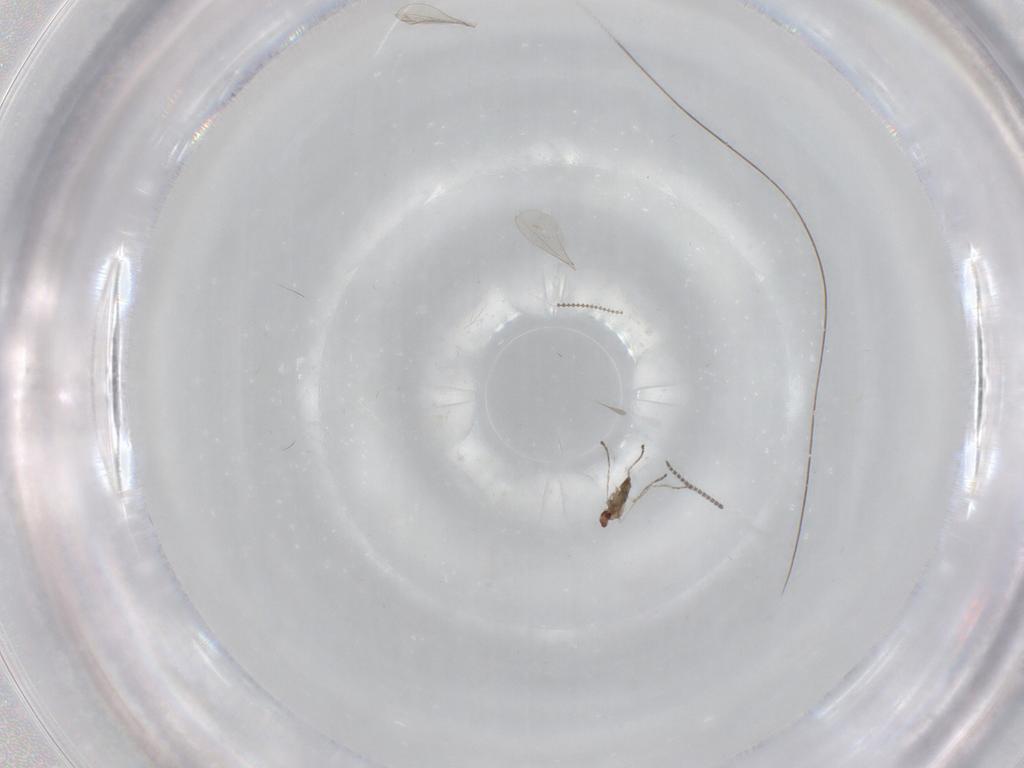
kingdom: Animalia
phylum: Arthropoda
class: Insecta
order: Diptera
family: Cecidomyiidae
